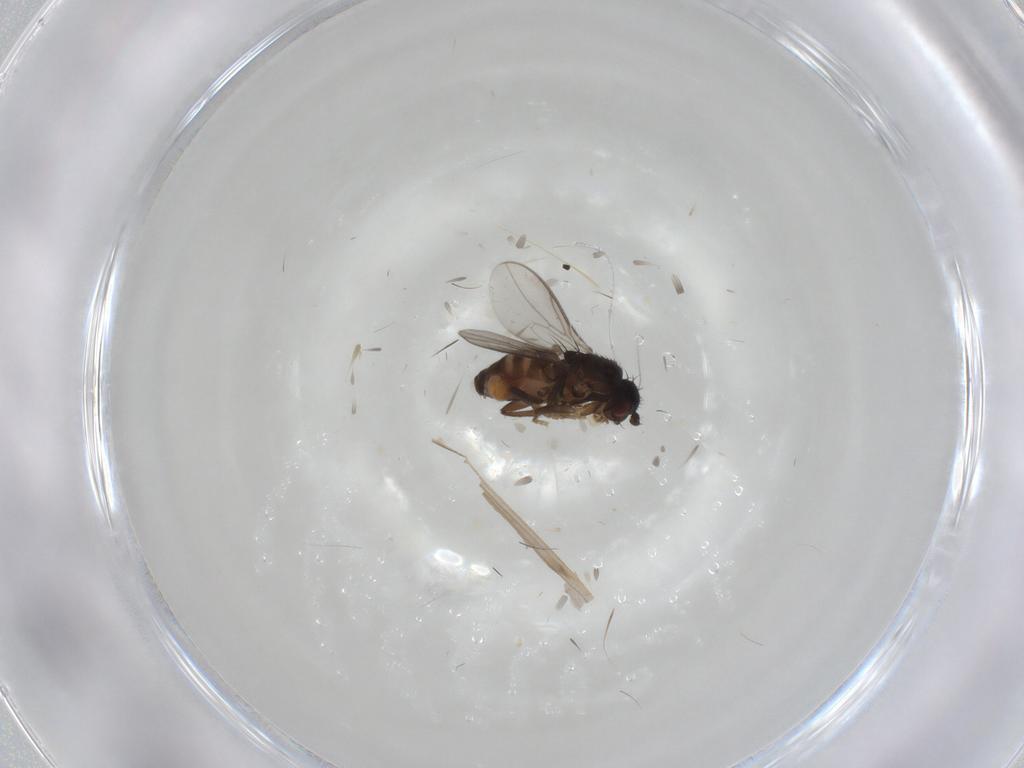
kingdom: Animalia
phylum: Arthropoda
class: Insecta
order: Diptera
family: Sphaeroceridae
